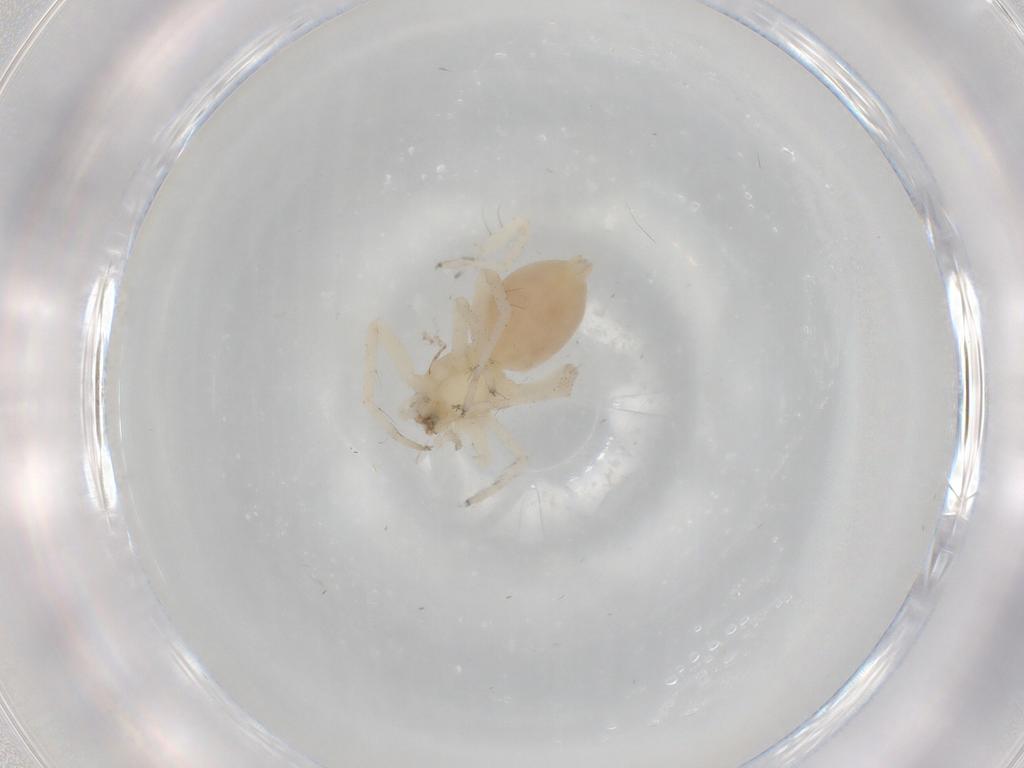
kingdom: Animalia
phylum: Arthropoda
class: Arachnida
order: Araneae
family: Anyphaenidae
